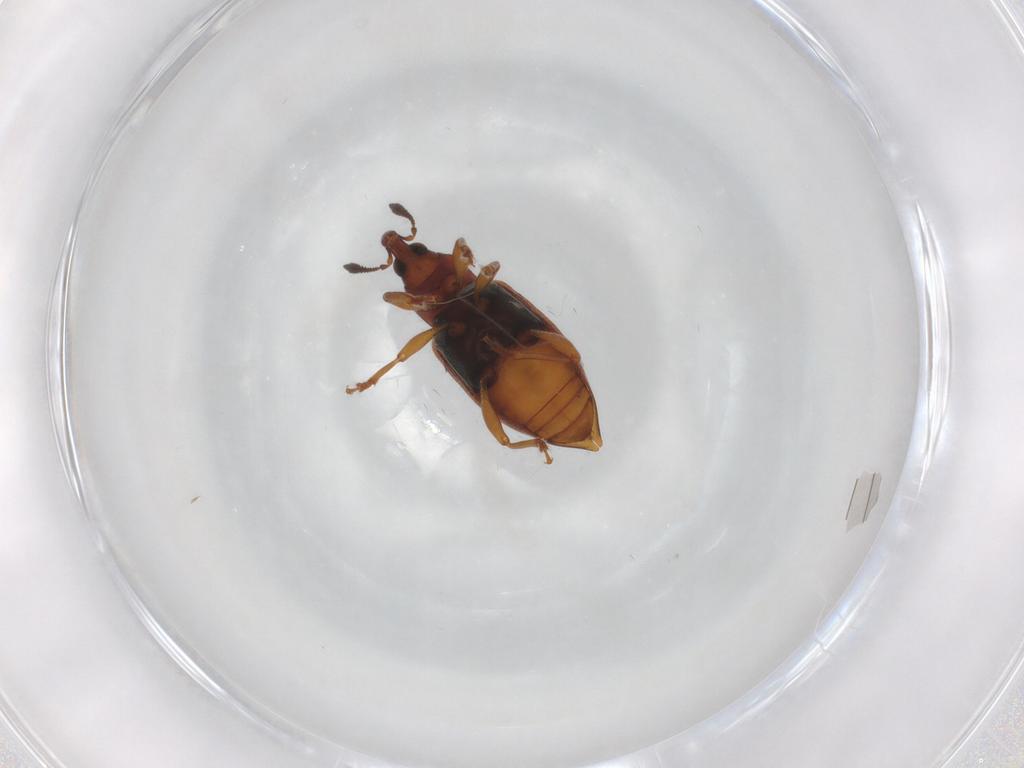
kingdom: Animalia
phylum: Arthropoda
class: Insecta
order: Coleoptera
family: Curculionidae
